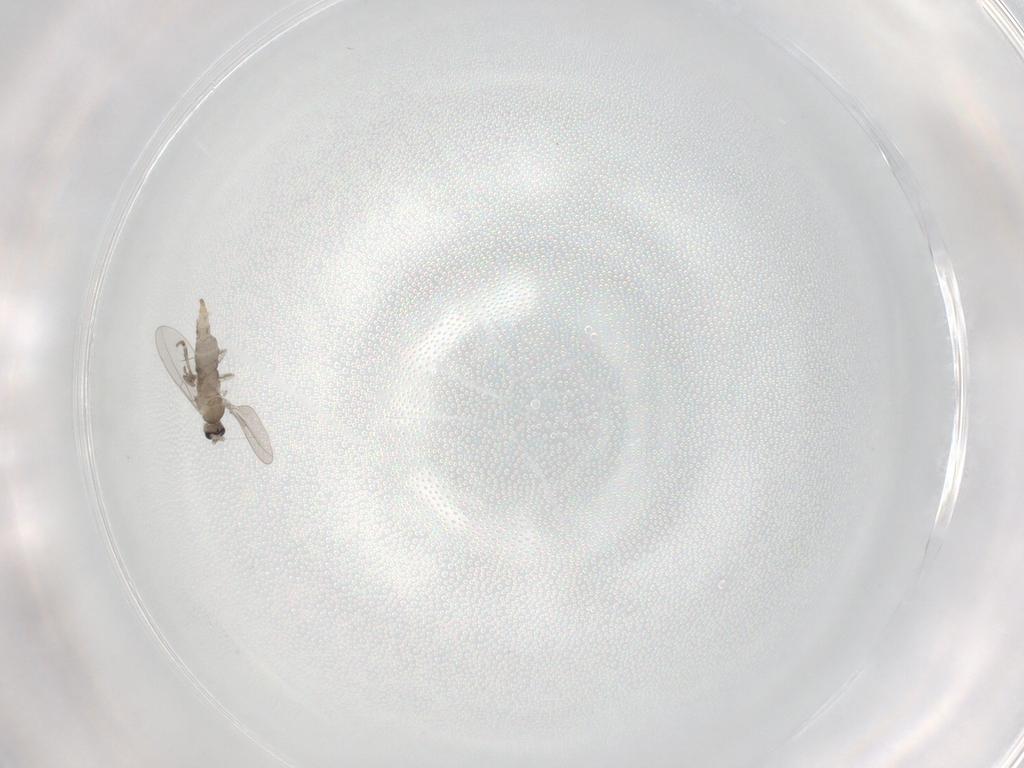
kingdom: Animalia
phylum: Arthropoda
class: Insecta
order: Diptera
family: Cecidomyiidae
